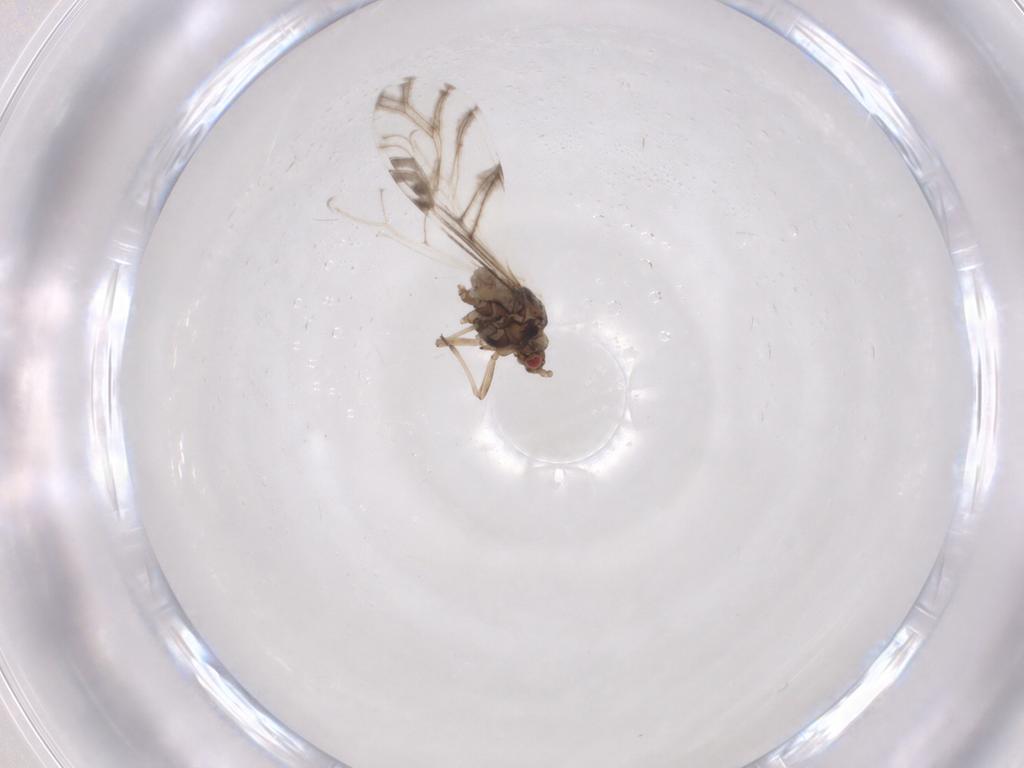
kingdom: Animalia
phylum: Arthropoda
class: Insecta
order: Hemiptera
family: Aphididae
